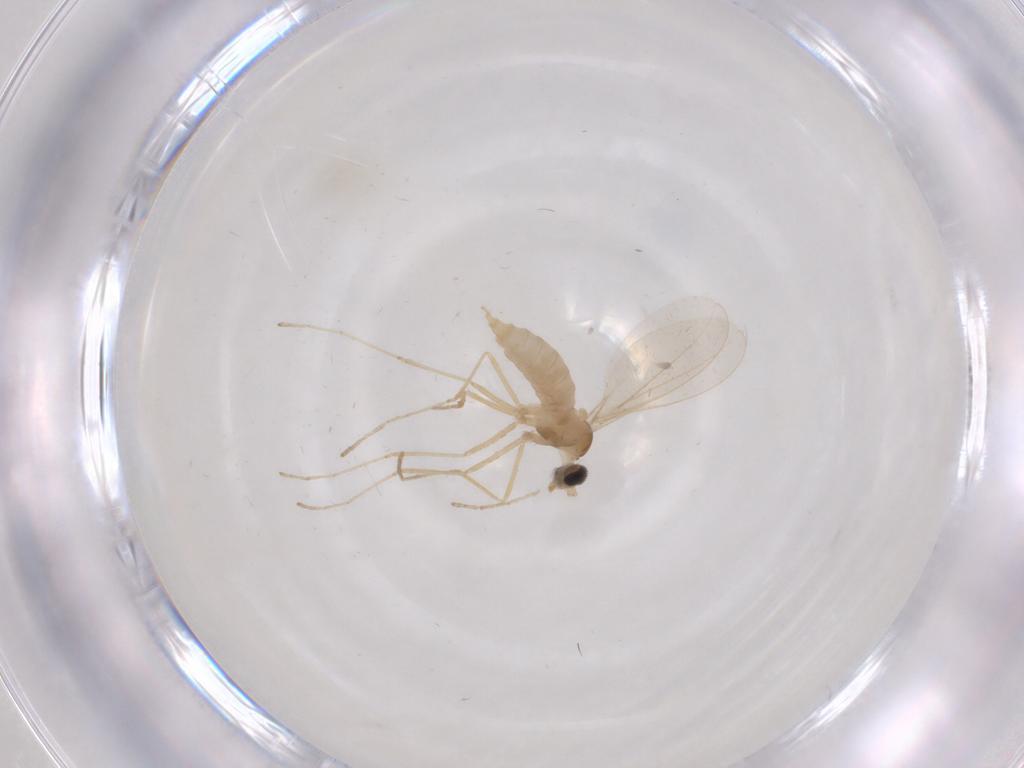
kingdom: Animalia
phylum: Arthropoda
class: Insecta
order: Diptera
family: Cecidomyiidae
